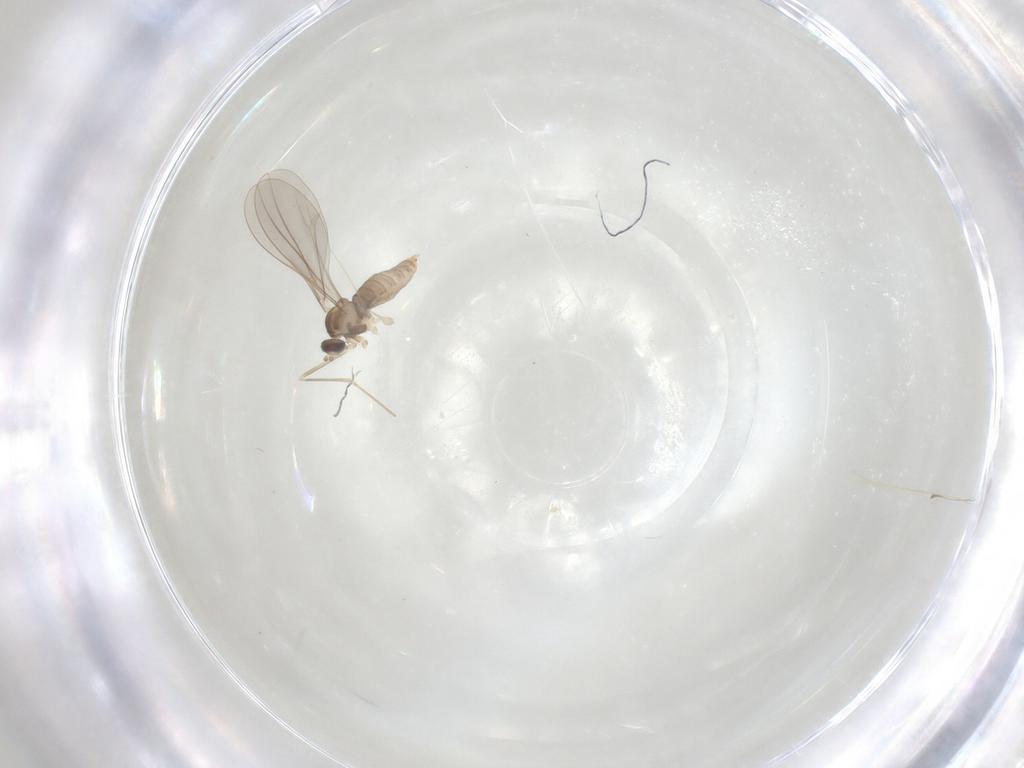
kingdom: Animalia
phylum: Arthropoda
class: Insecta
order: Diptera
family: Cecidomyiidae
